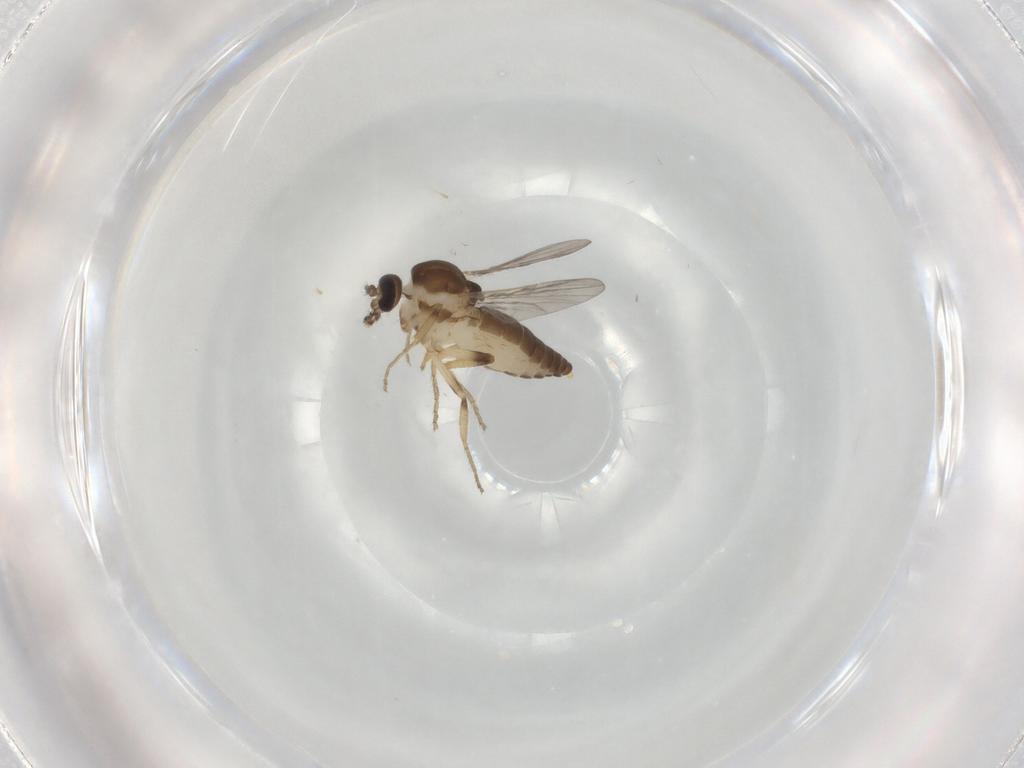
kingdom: Animalia
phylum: Arthropoda
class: Insecta
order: Diptera
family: Ceratopogonidae
